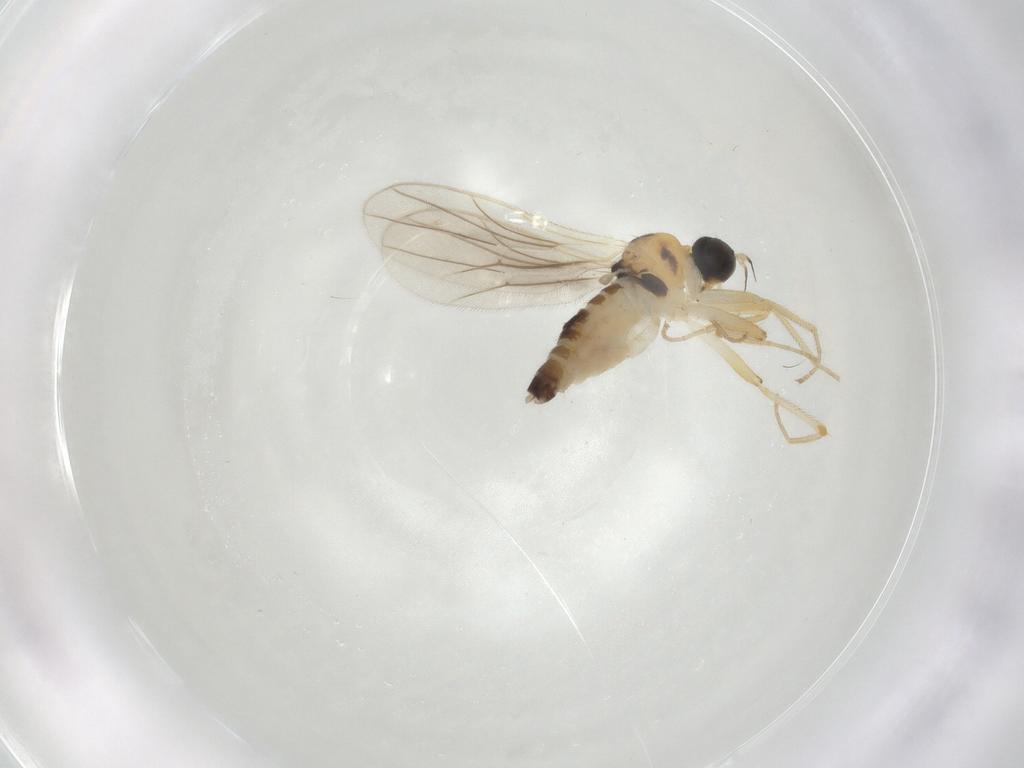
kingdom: Animalia
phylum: Arthropoda
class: Insecta
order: Diptera
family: Hybotidae
